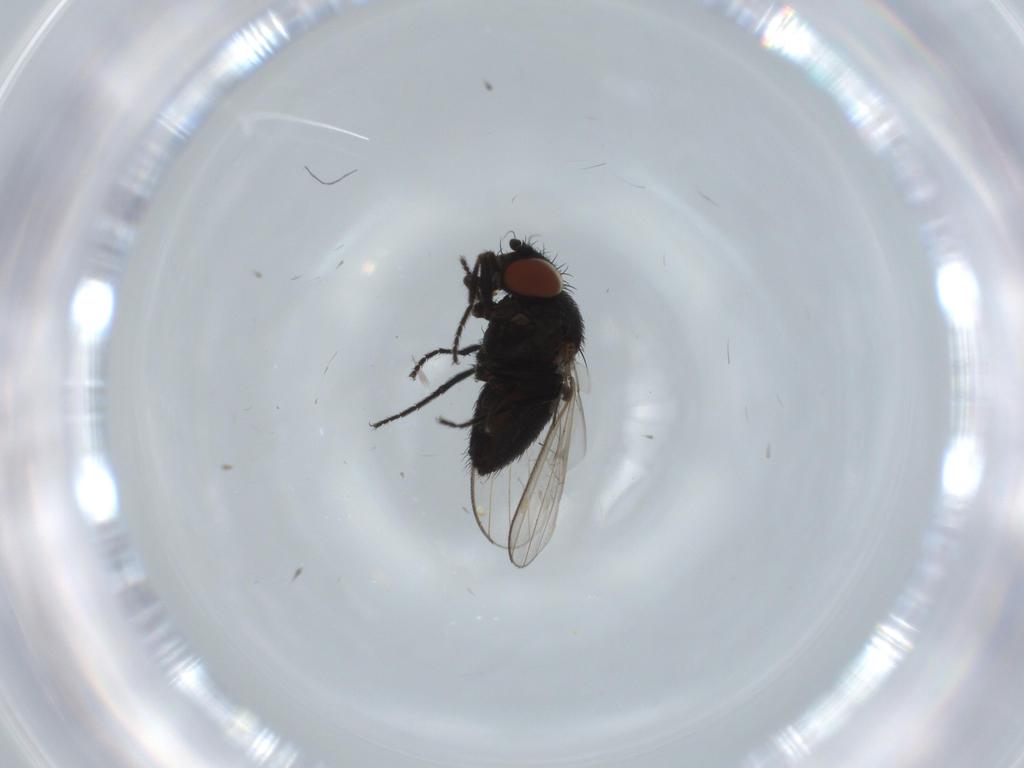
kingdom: Animalia
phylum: Arthropoda
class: Insecta
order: Diptera
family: Milichiidae
